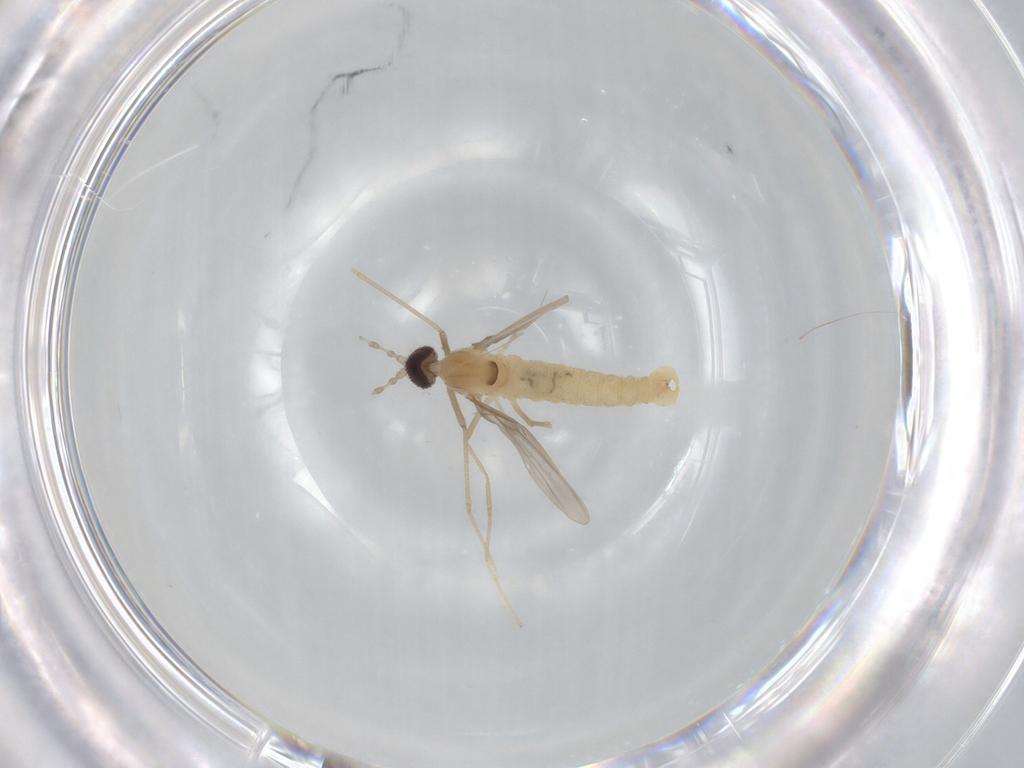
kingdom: Animalia
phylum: Arthropoda
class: Insecta
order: Diptera
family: Cecidomyiidae
